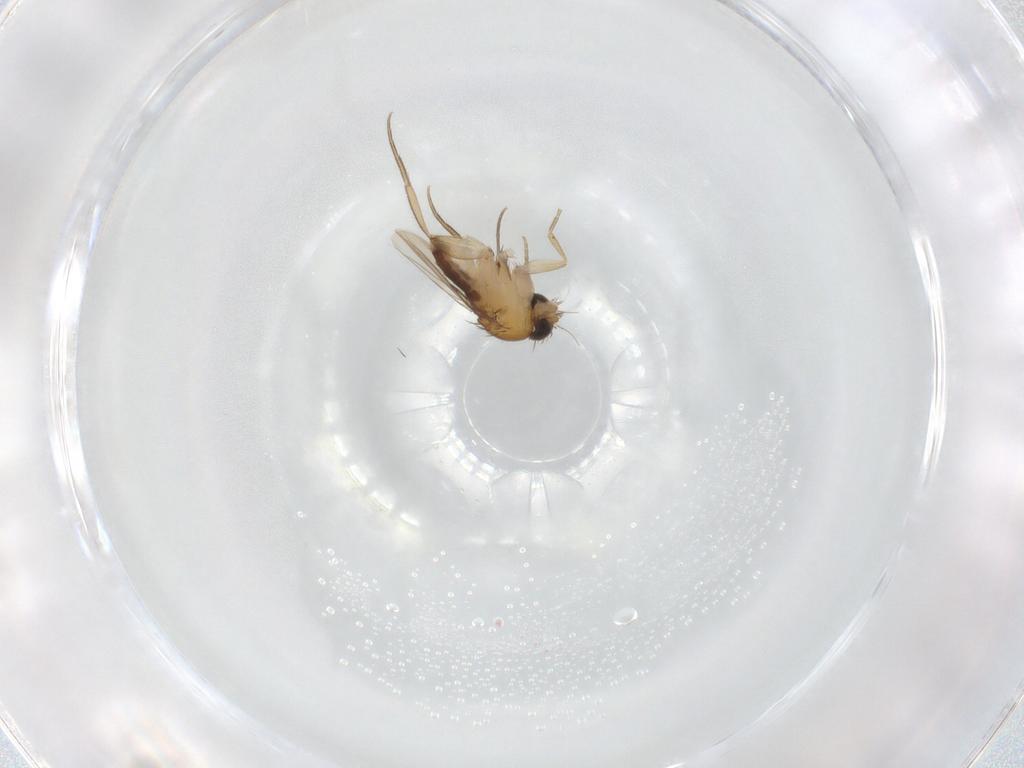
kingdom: Animalia
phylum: Arthropoda
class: Insecta
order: Diptera
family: Phoridae
